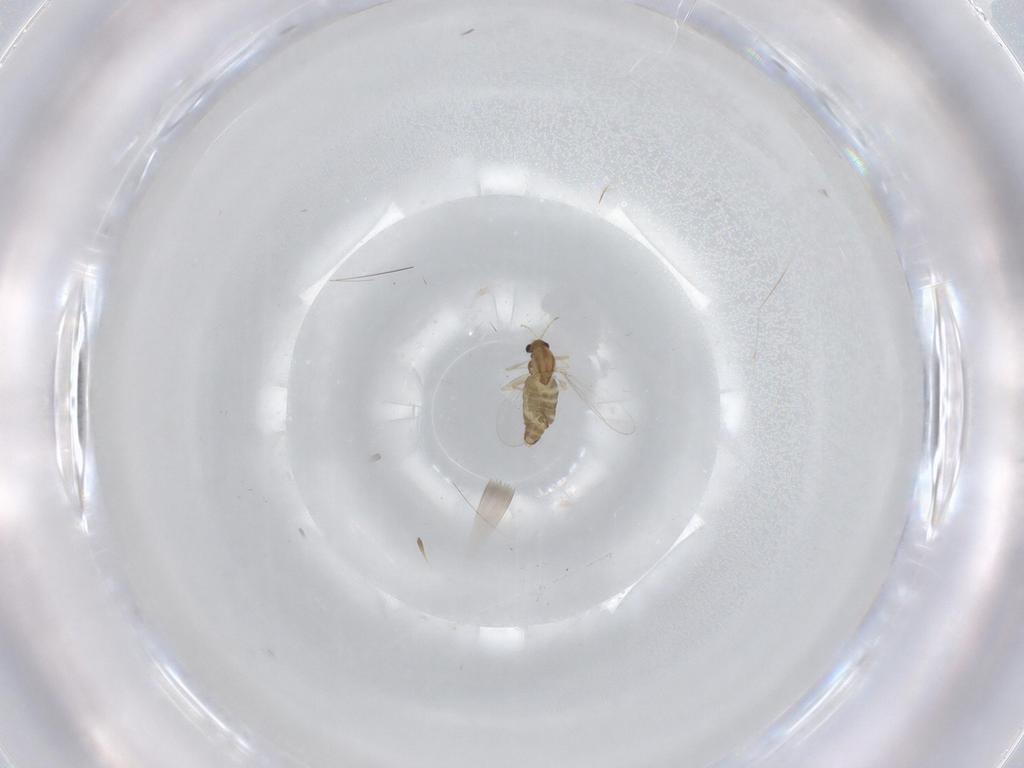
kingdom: Animalia
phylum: Arthropoda
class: Insecta
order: Diptera
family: Chironomidae
